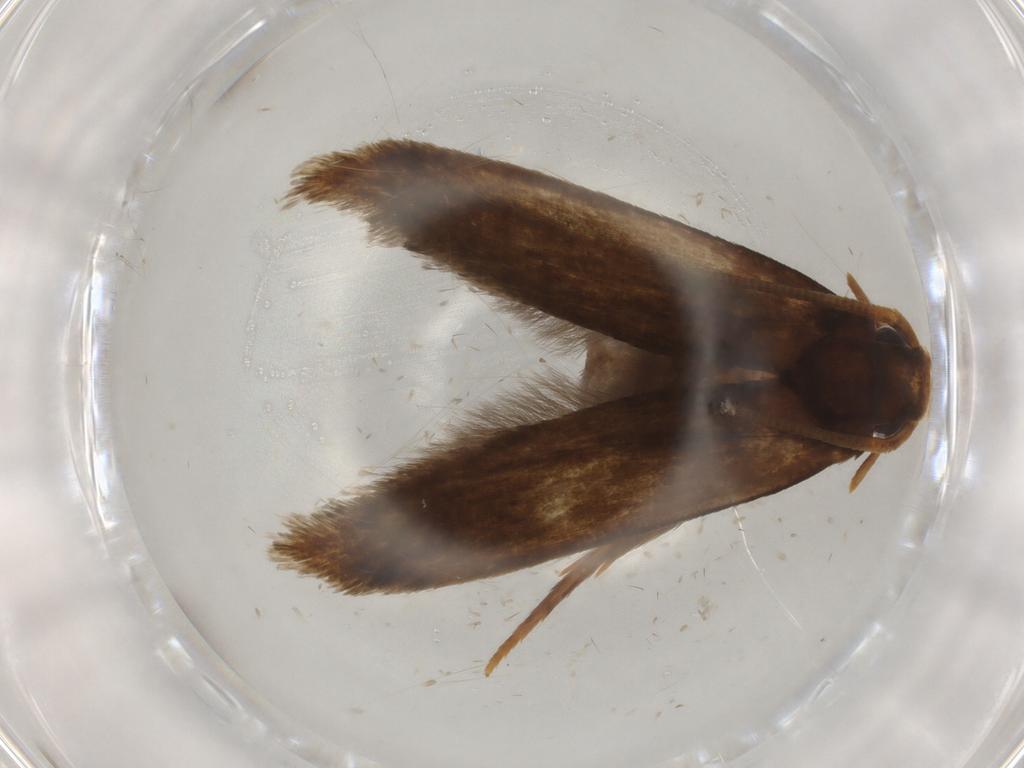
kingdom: Animalia
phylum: Arthropoda
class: Insecta
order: Lepidoptera
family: Tineidae
